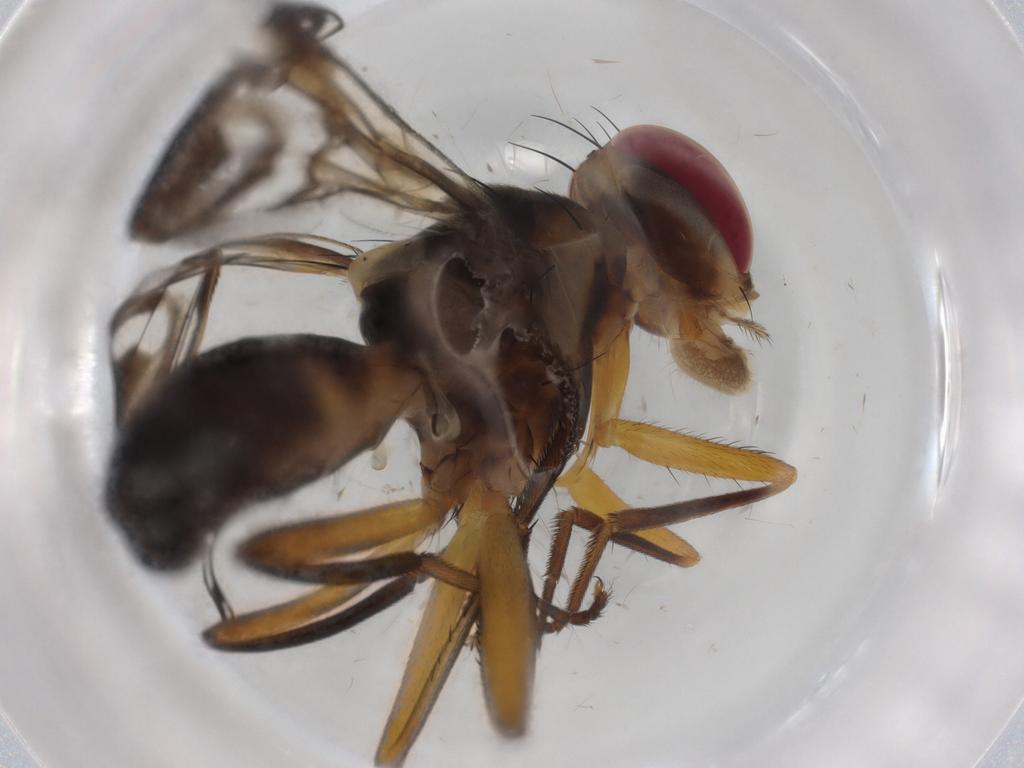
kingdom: Animalia
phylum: Arthropoda
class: Insecta
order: Diptera
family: Tephritidae
